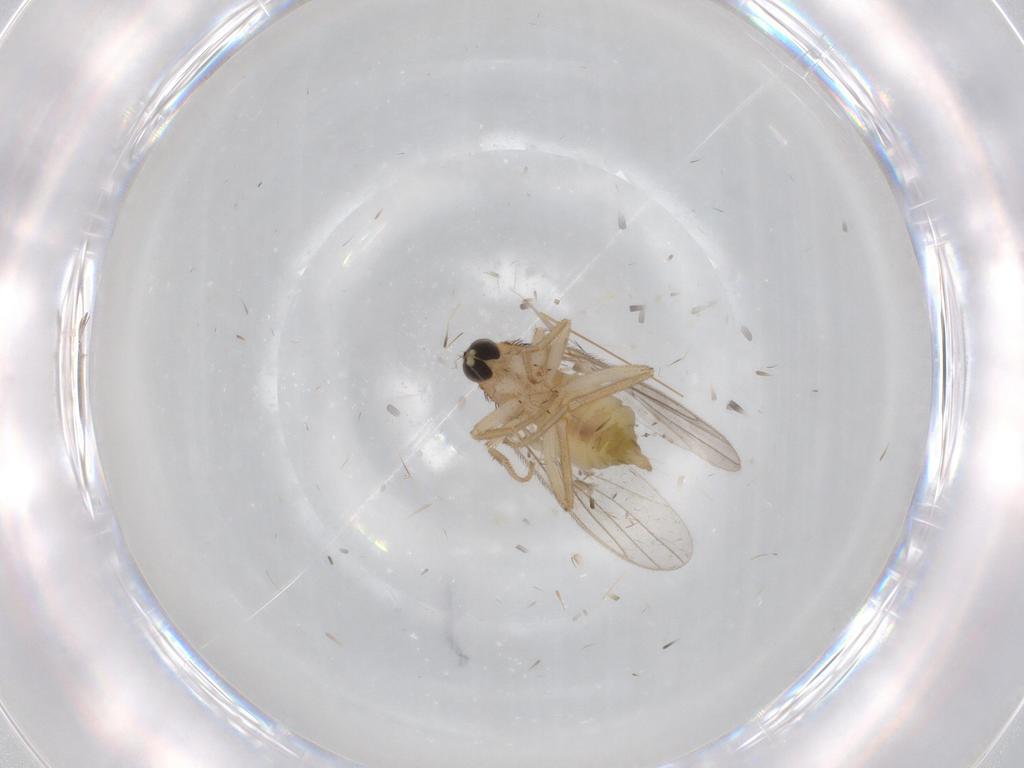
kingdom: Animalia
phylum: Arthropoda
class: Insecta
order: Diptera
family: Hybotidae
